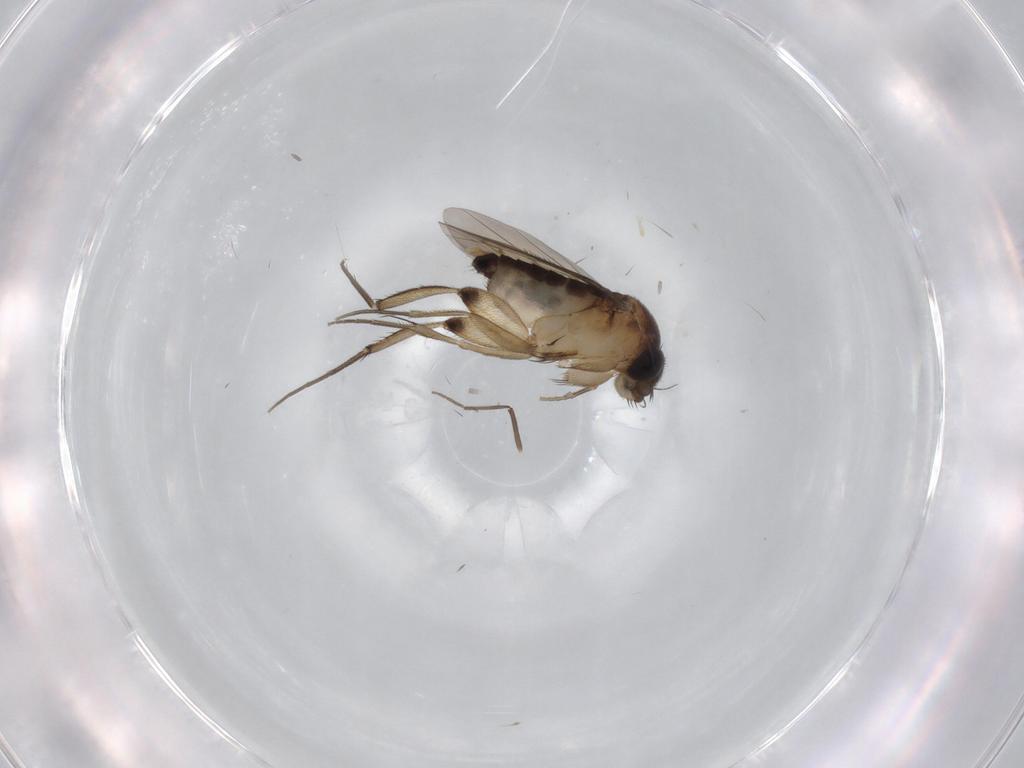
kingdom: Animalia
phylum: Arthropoda
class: Insecta
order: Diptera
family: Phoridae
